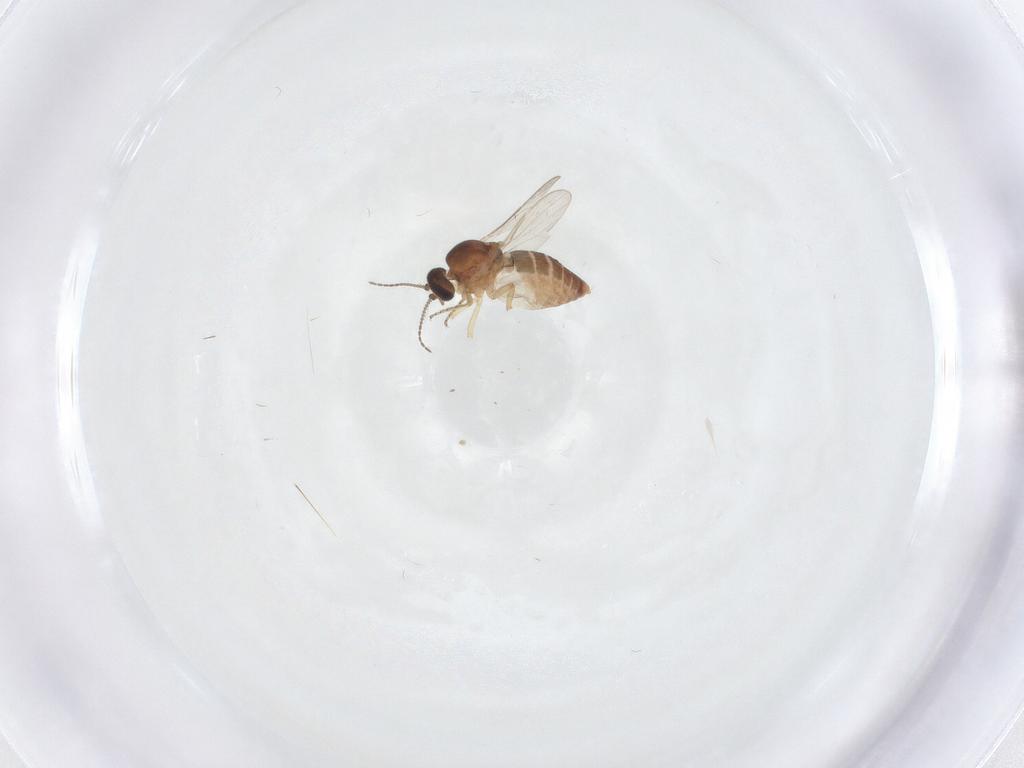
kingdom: Animalia
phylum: Arthropoda
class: Insecta
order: Diptera
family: Ceratopogonidae
